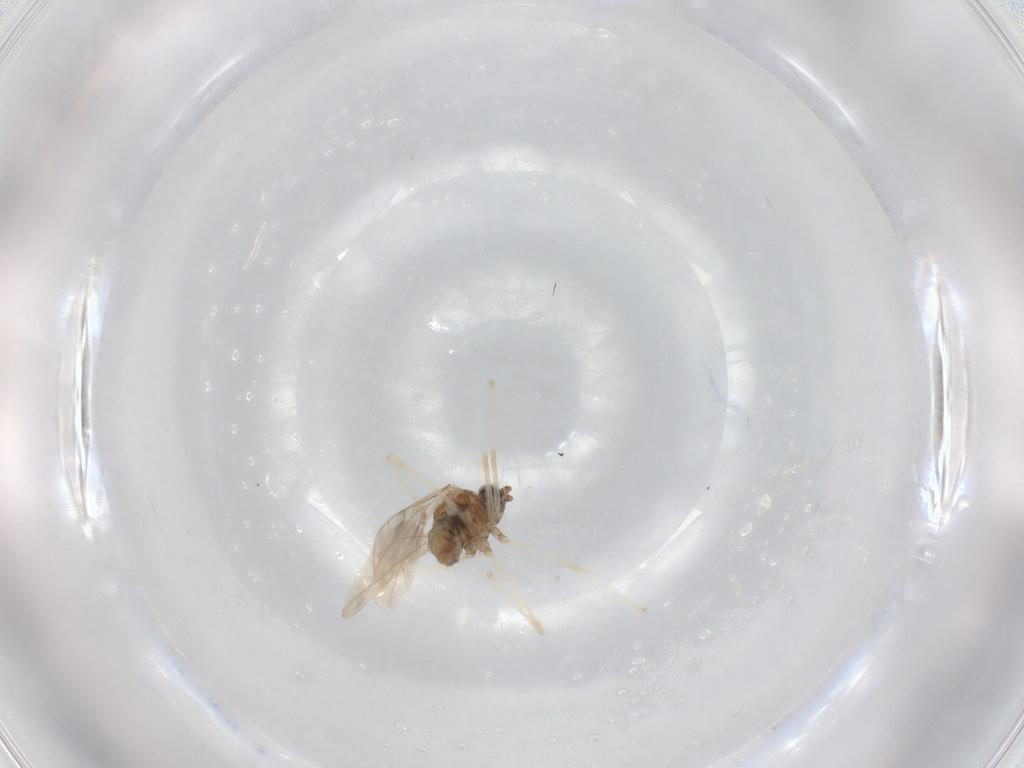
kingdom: Animalia
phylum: Arthropoda
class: Insecta
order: Diptera
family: Cecidomyiidae
